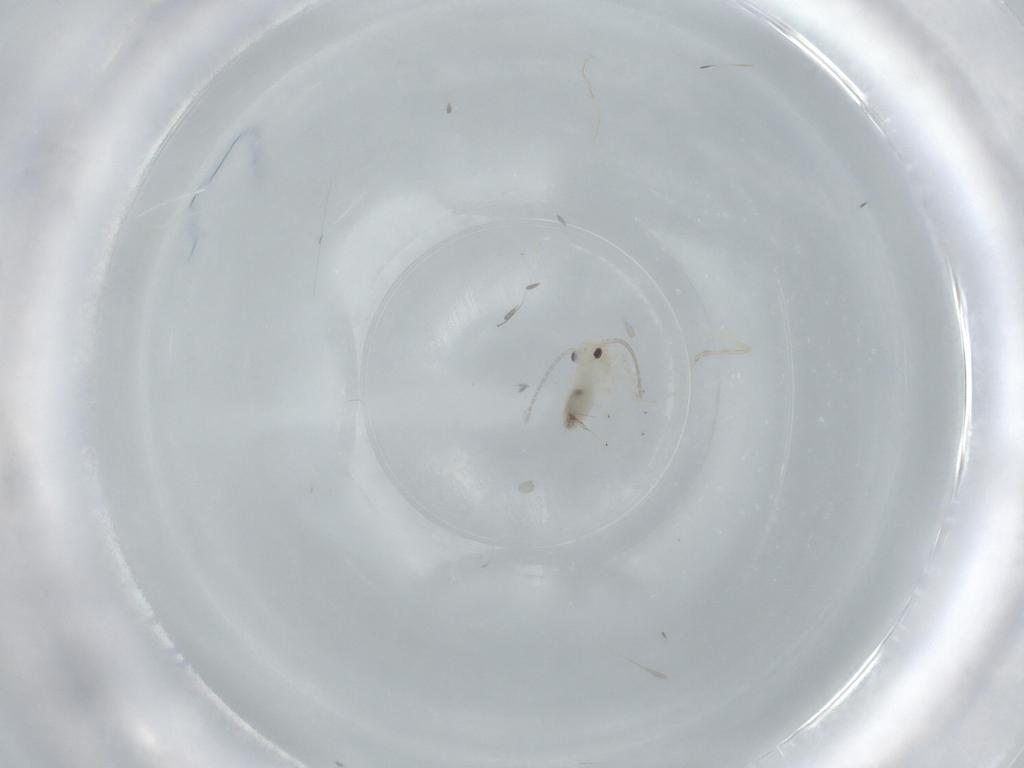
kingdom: Animalia
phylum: Arthropoda
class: Insecta
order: Psocodea
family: Caeciliusidae
